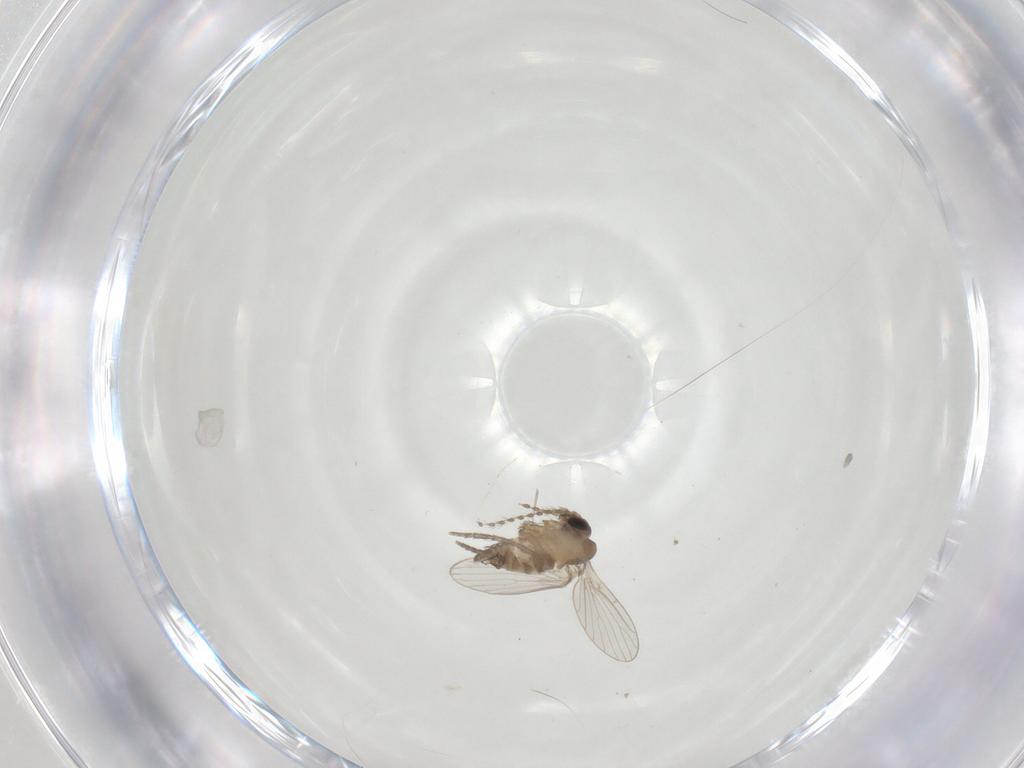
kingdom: Animalia
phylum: Arthropoda
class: Insecta
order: Diptera
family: Psychodidae
